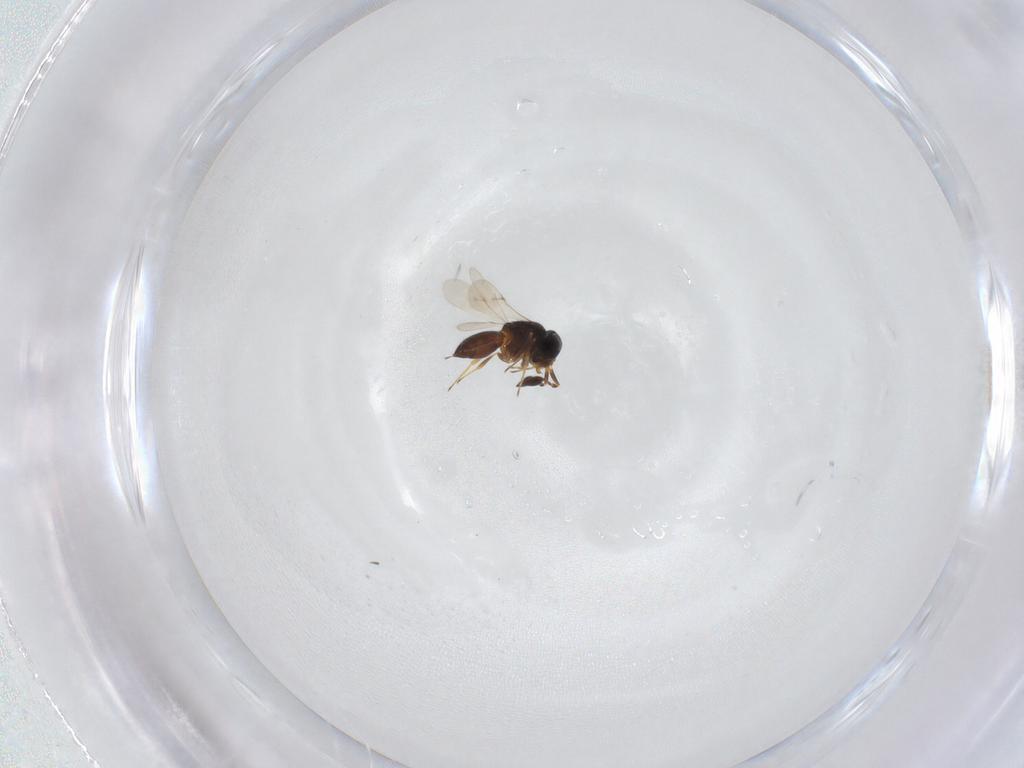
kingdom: Animalia
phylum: Arthropoda
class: Insecta
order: Hymenoptera
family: Scelionidae
